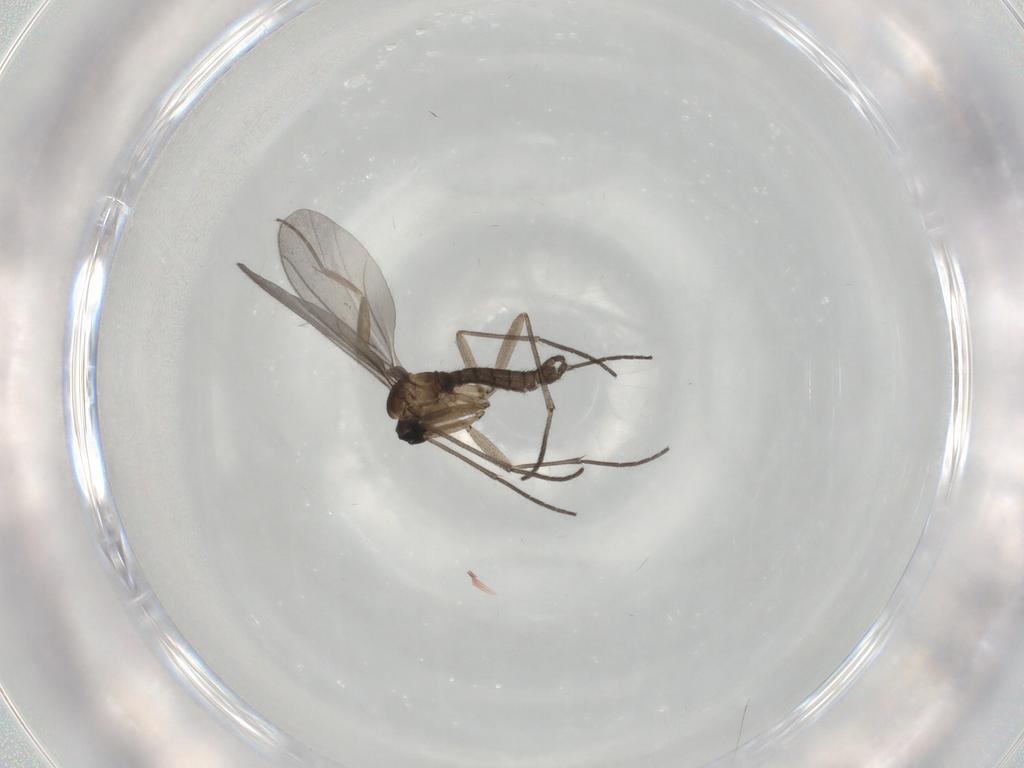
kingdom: Animalia
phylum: Arthropoda
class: Insecta
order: Diptera
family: Sciaridae
